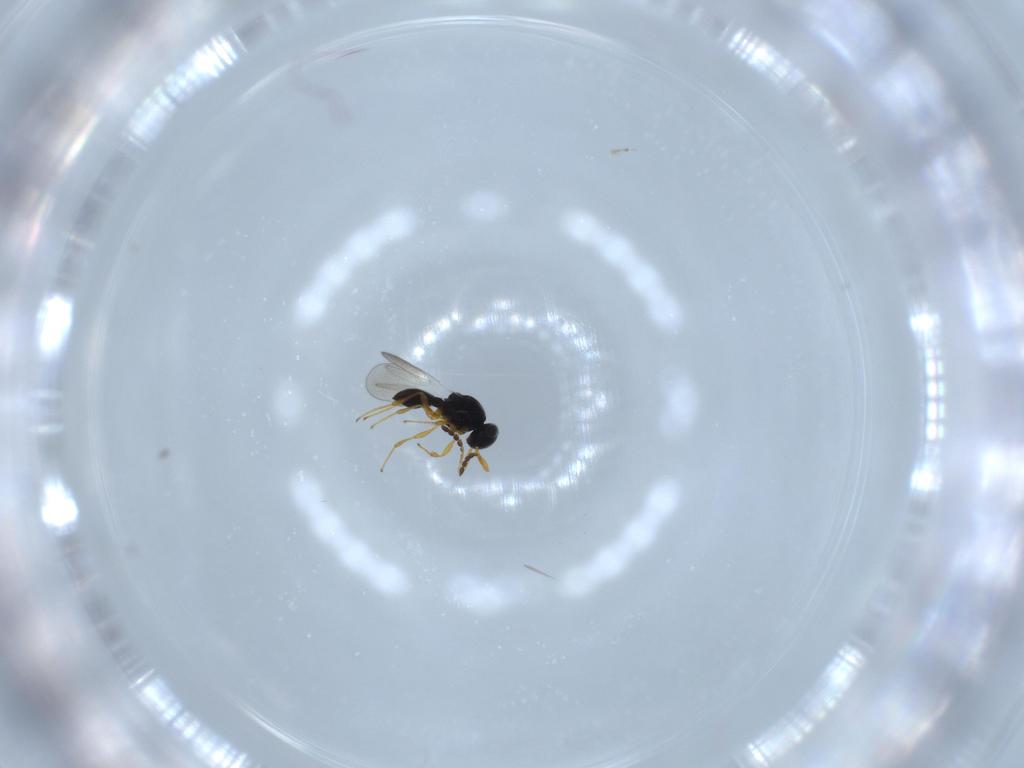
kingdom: Animalia
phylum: Arthropoda
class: Insecta
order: Hymenoptera
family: Platygastridae
